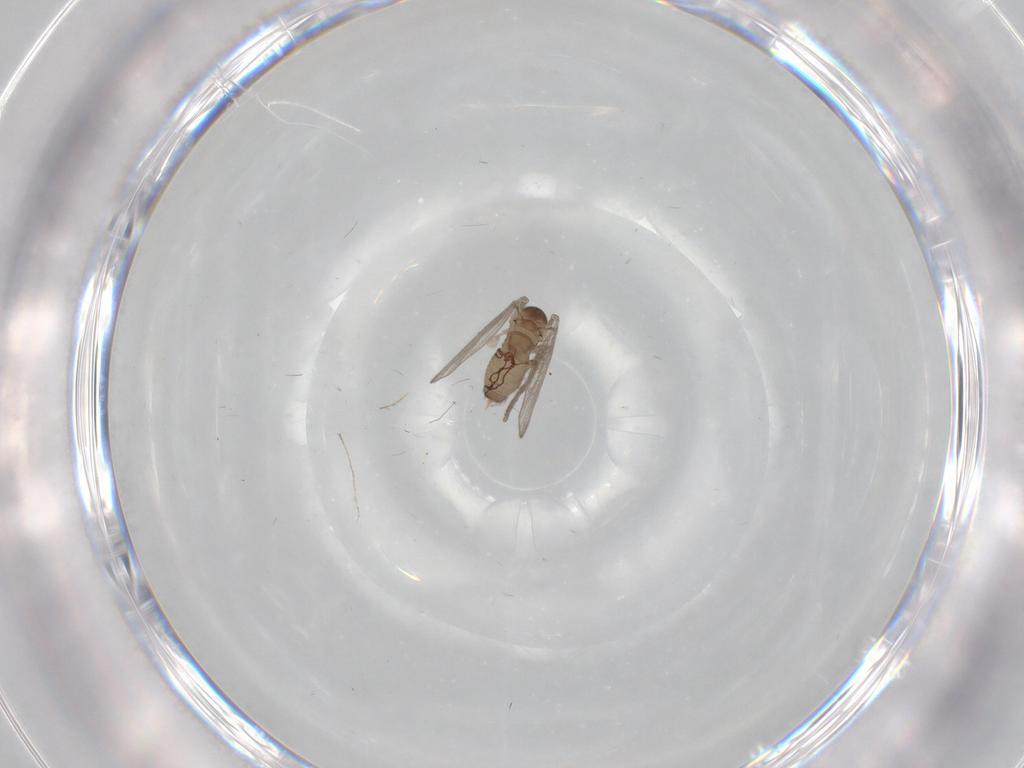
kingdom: Animalia
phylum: Arthropoda
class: Insecta
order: Diptera
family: Psychodidae
